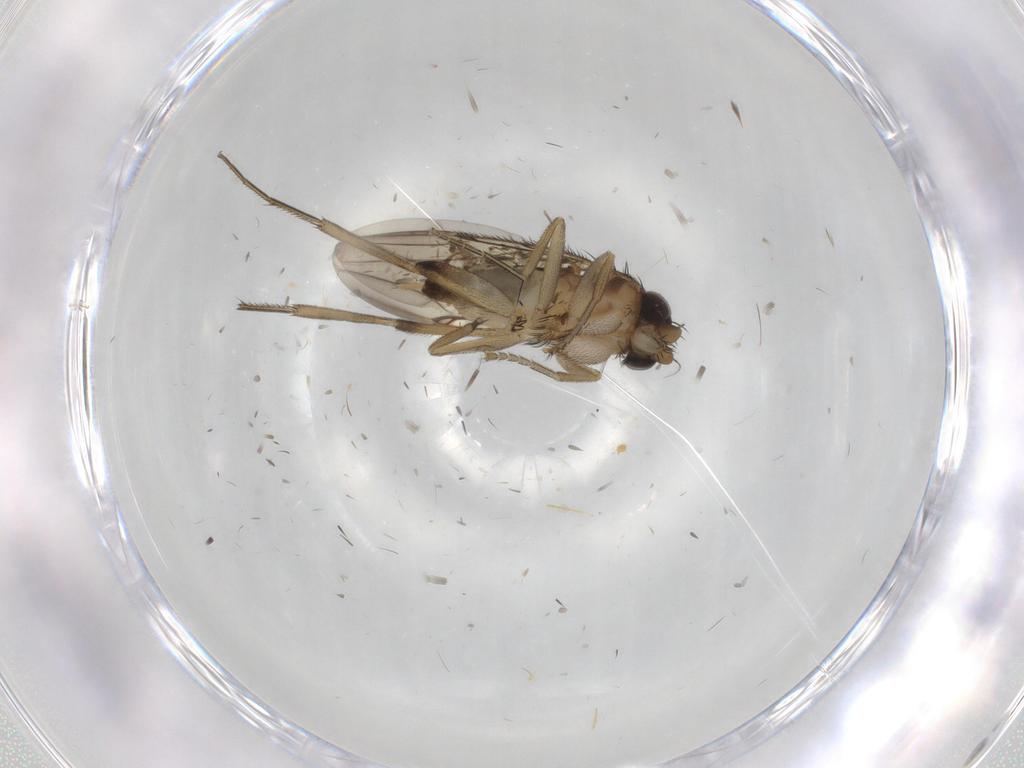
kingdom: Animalia
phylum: Arthropoda
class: Insecta
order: Diptera
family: Phoridae
